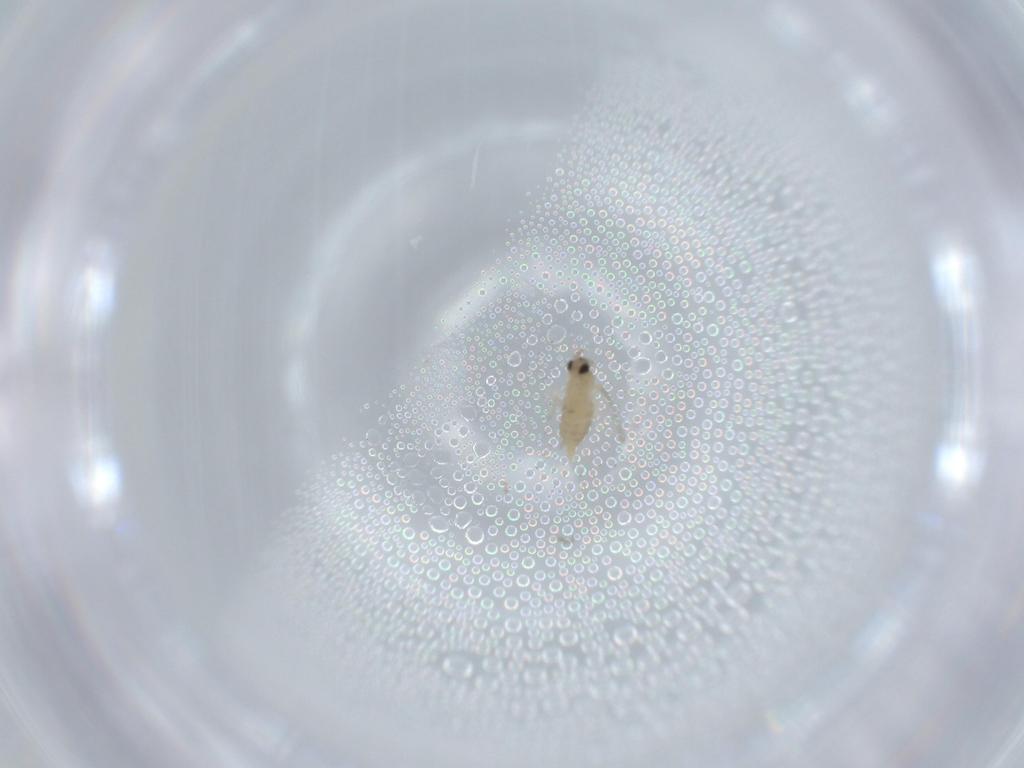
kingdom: Animalia
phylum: Arthropoda
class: Insecta
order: Diptera
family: Cecidomyiidae
